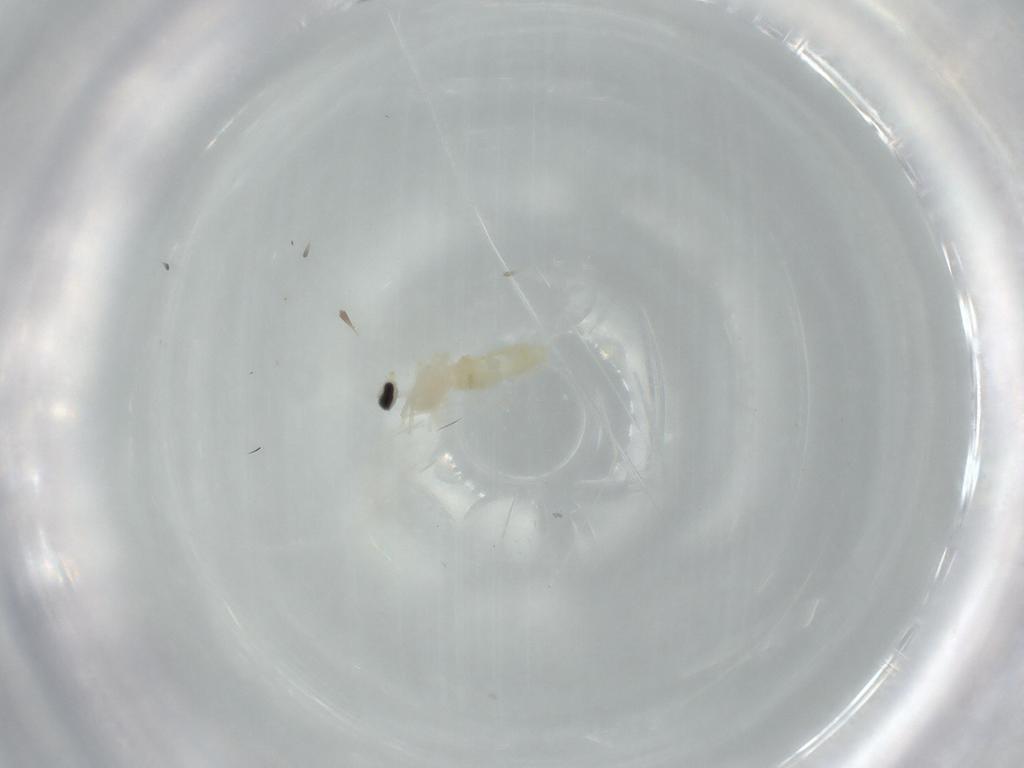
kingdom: Animalia
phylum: Arthropoda
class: Insecta
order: Diptera
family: Cecidomyiidae
